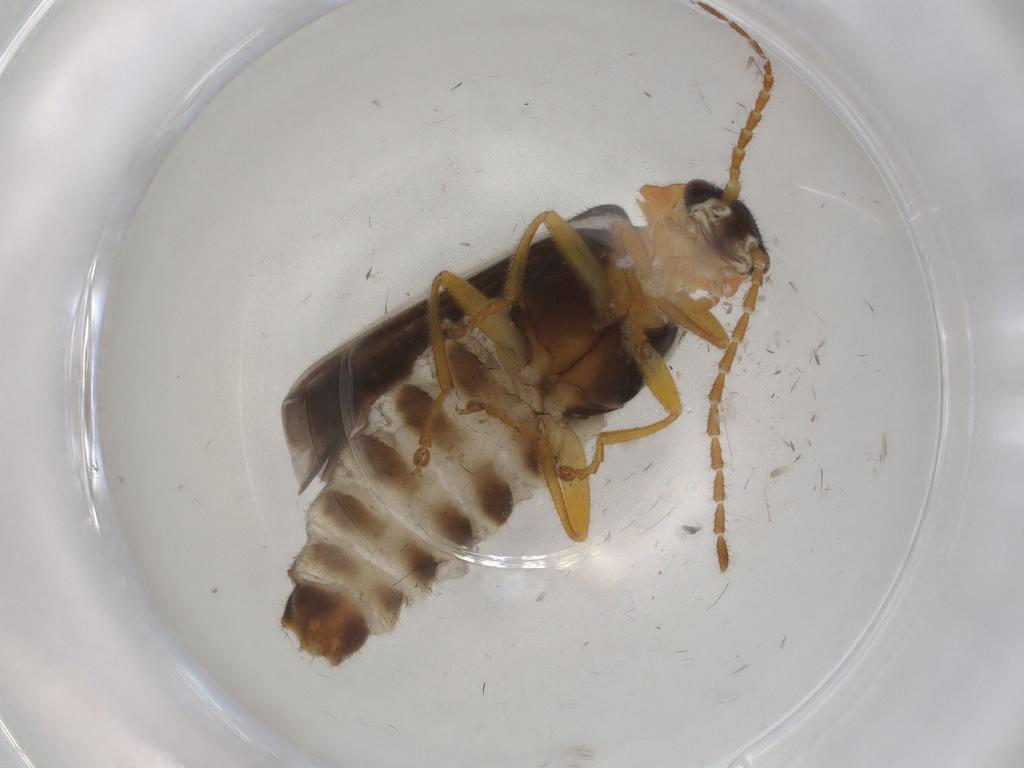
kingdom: Animalia
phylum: Arthropoda
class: Insecta
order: Coleoptera
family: Cantharidae
